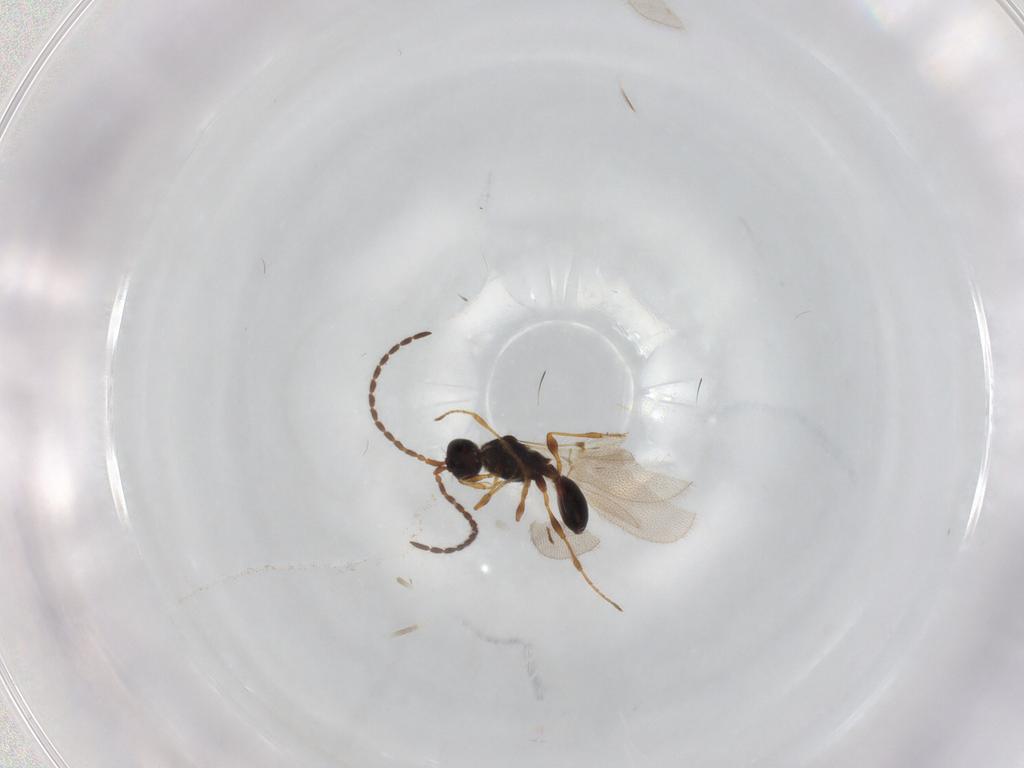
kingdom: Animalia
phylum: Arthropoda
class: Insecta
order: Hymenoptera
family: Diapriidae
